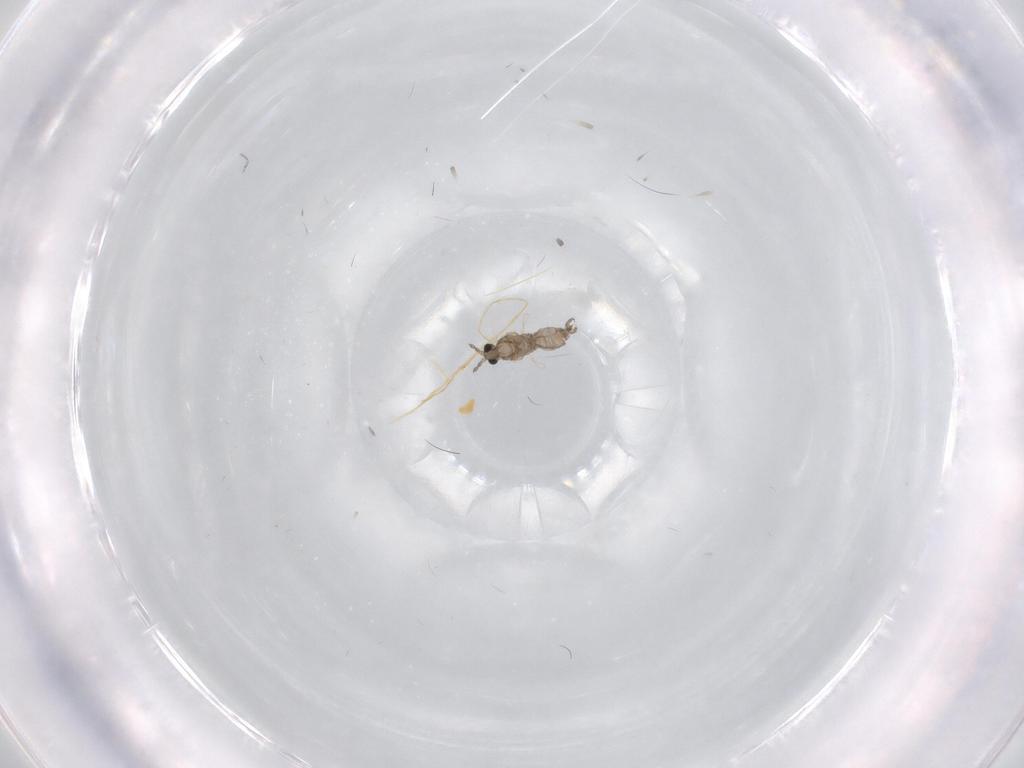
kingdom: Animalia
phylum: Arthropoda
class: Insecta
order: Diptera
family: Cecidomyiidae
